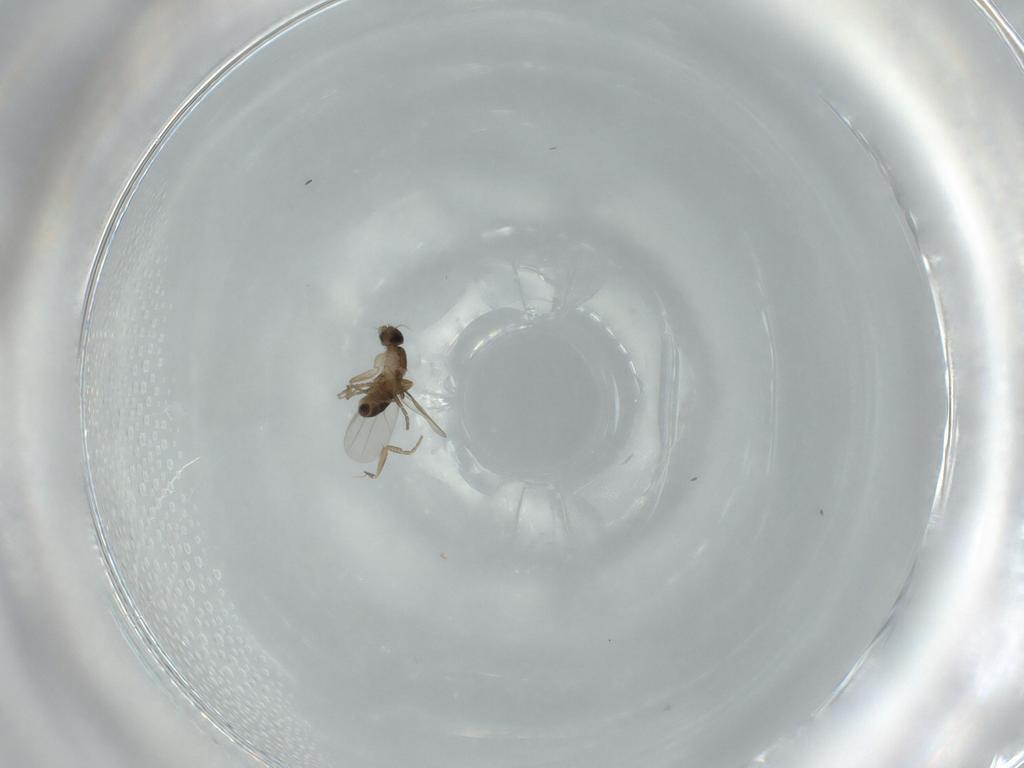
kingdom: Animalia
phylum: Arthropoda
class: Insecta
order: Diptera
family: Phoridae
